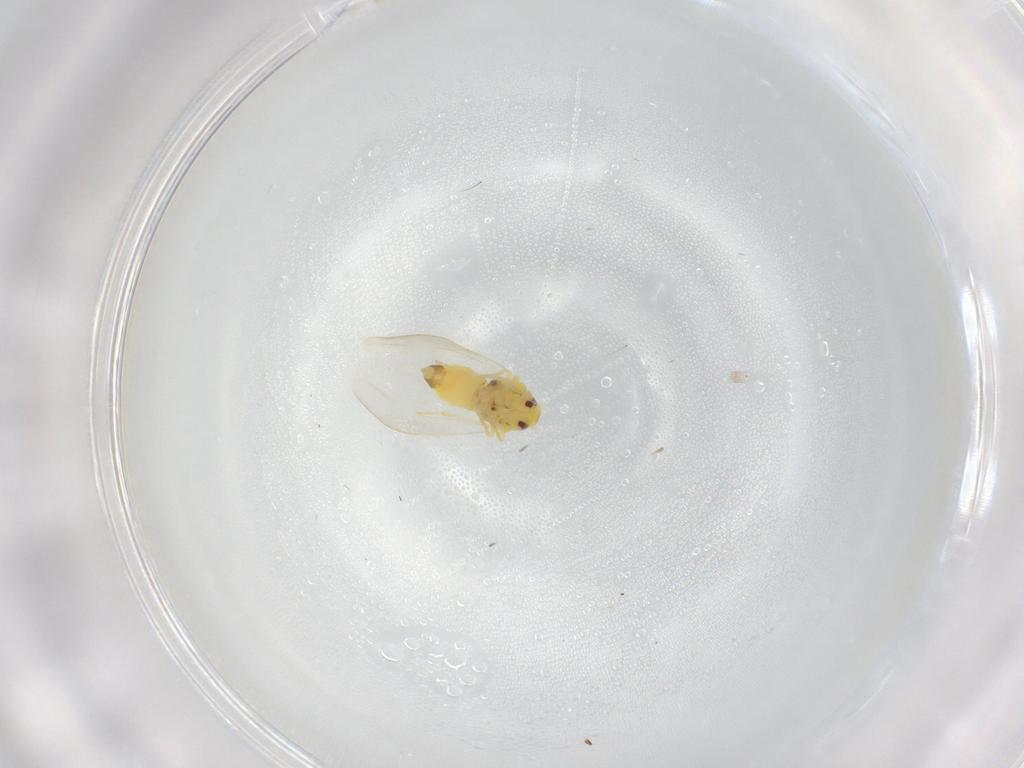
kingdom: Animalia
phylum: Arthropoda
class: Insecta
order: Hemiptera
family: Aleyrodidae
